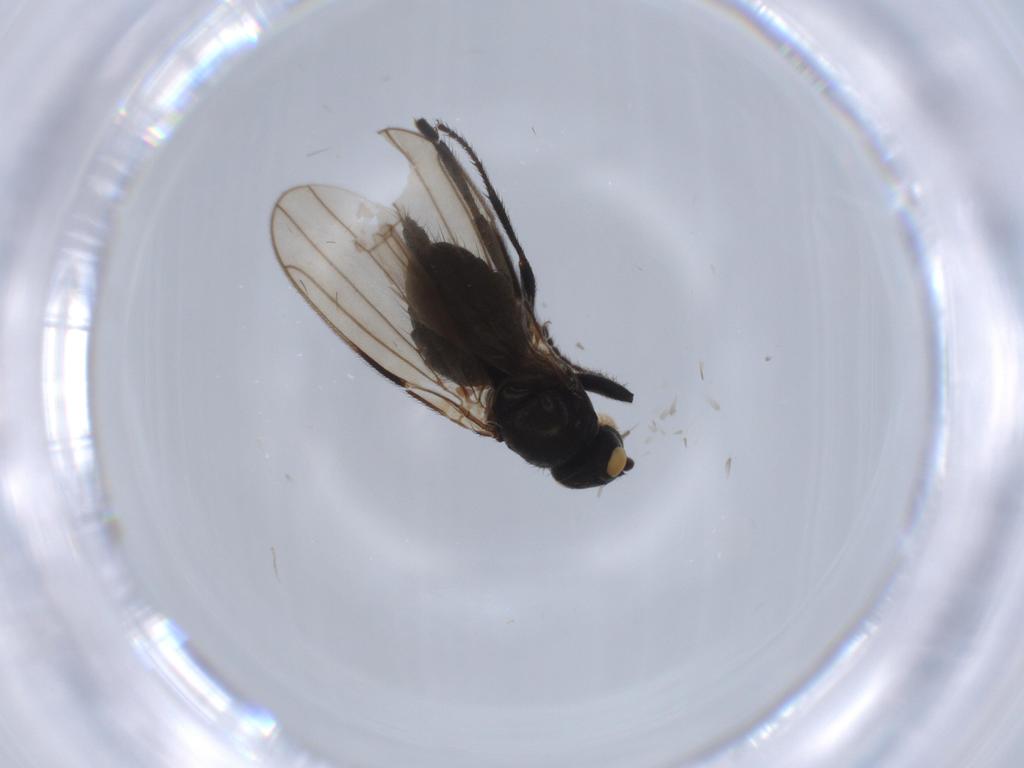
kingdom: Animalia
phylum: Arthropoda
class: Insecta
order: Diptera
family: Sphaeroceridae
